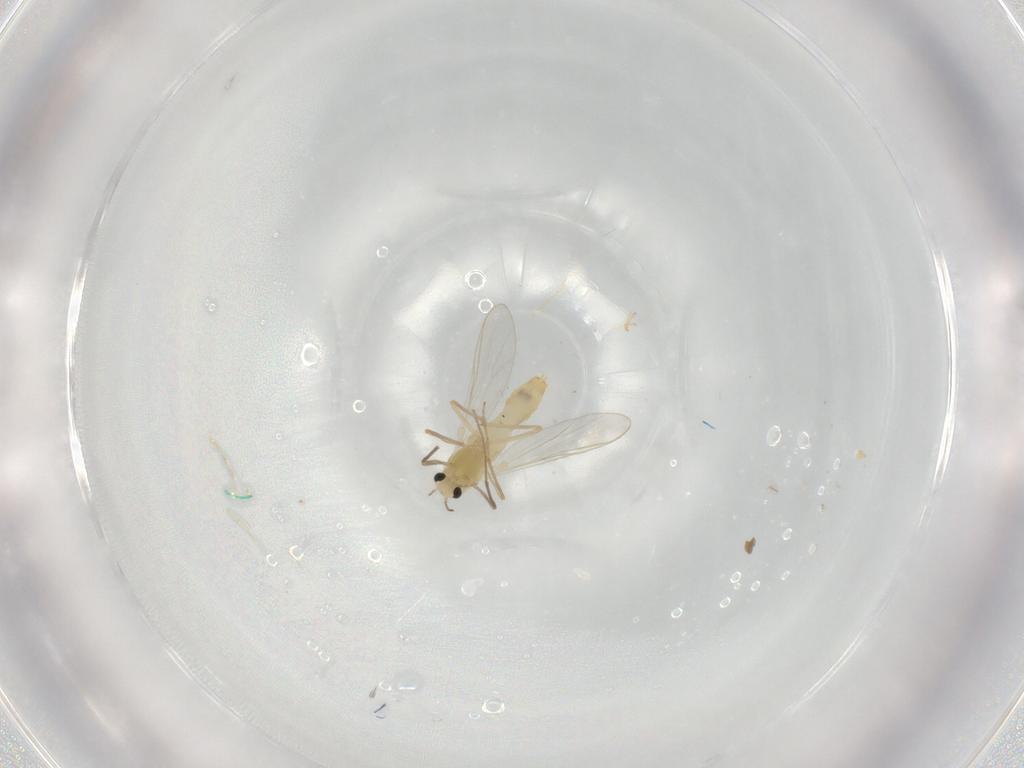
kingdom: Animalia
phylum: Arthropoda
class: Insecta
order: Diptera
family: Chironomidae
